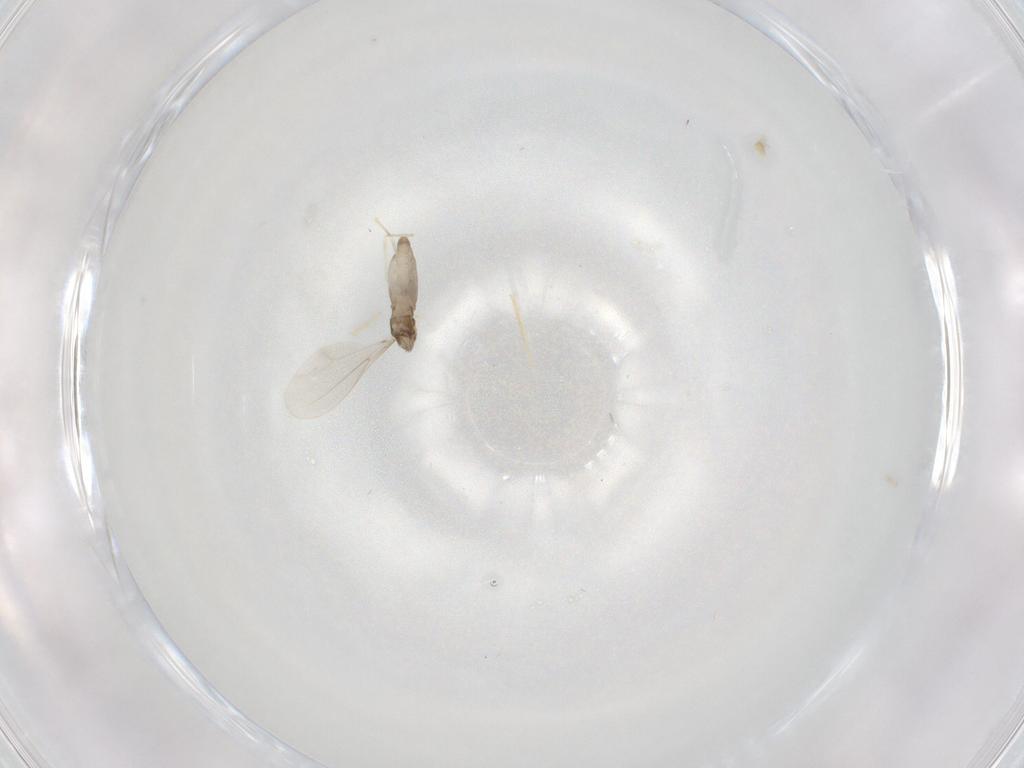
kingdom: Animalia
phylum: Arthropoda
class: Insecta
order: Diptera
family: Cecidomyiidae
